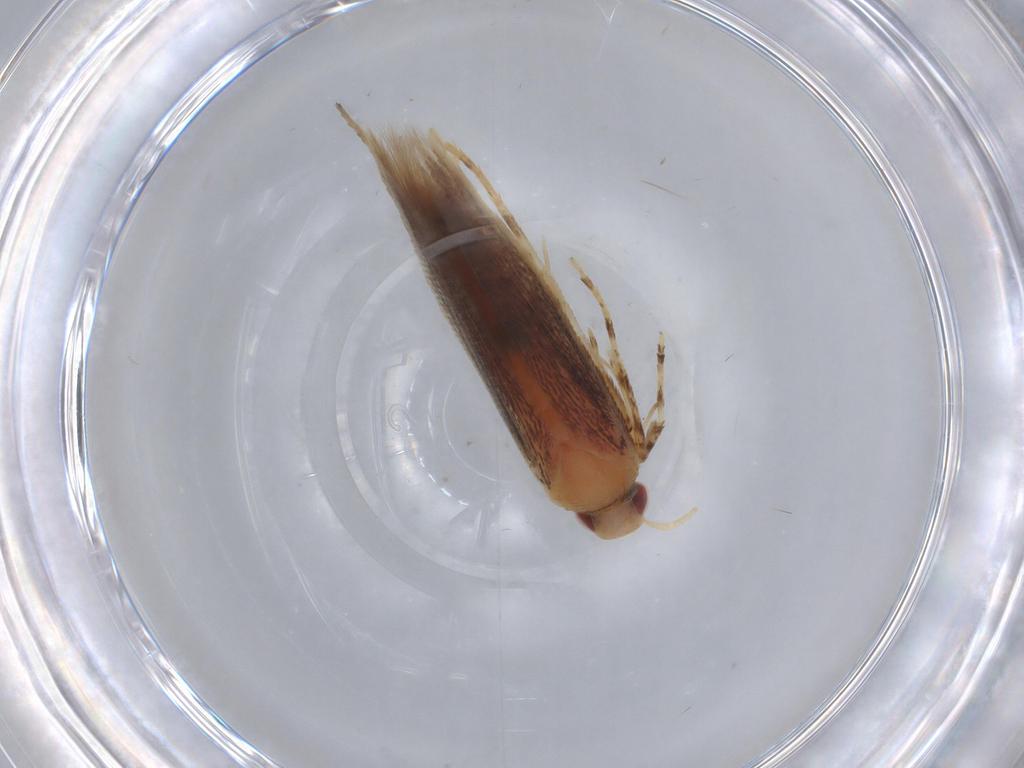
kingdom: Animalia
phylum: Arthropoda
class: Insecta
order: Lepidoptera
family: Cosmopterigidae
